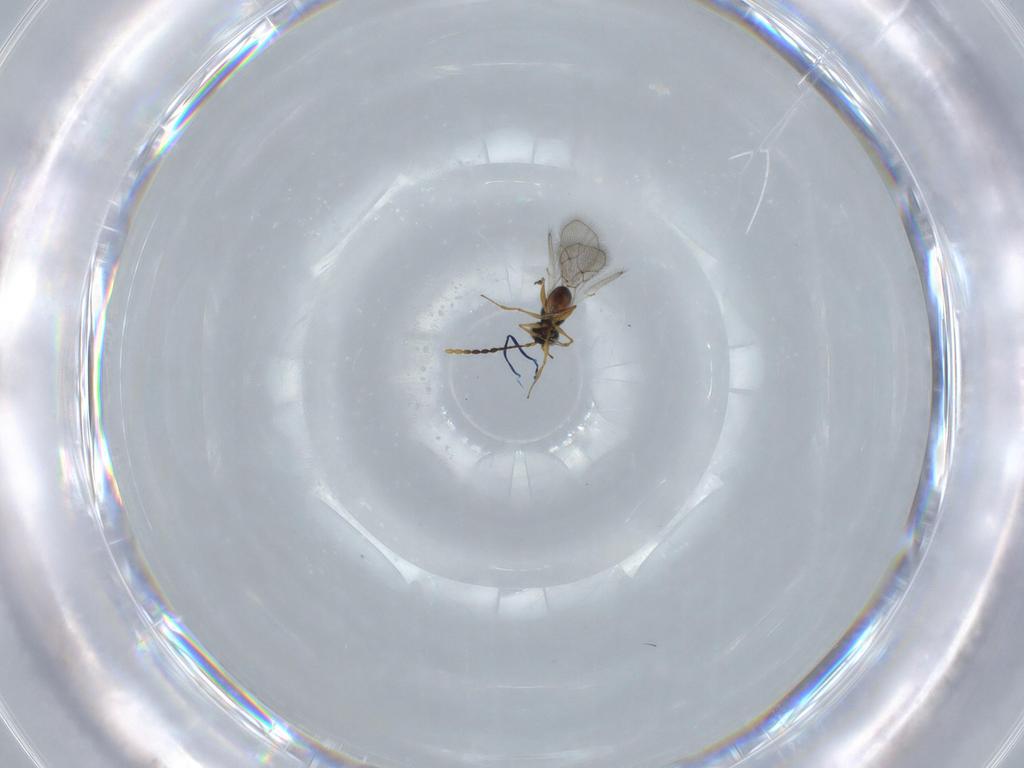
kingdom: Animalia
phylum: Arthropoda
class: Insecta
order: Hymenoptera
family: Figitidae
